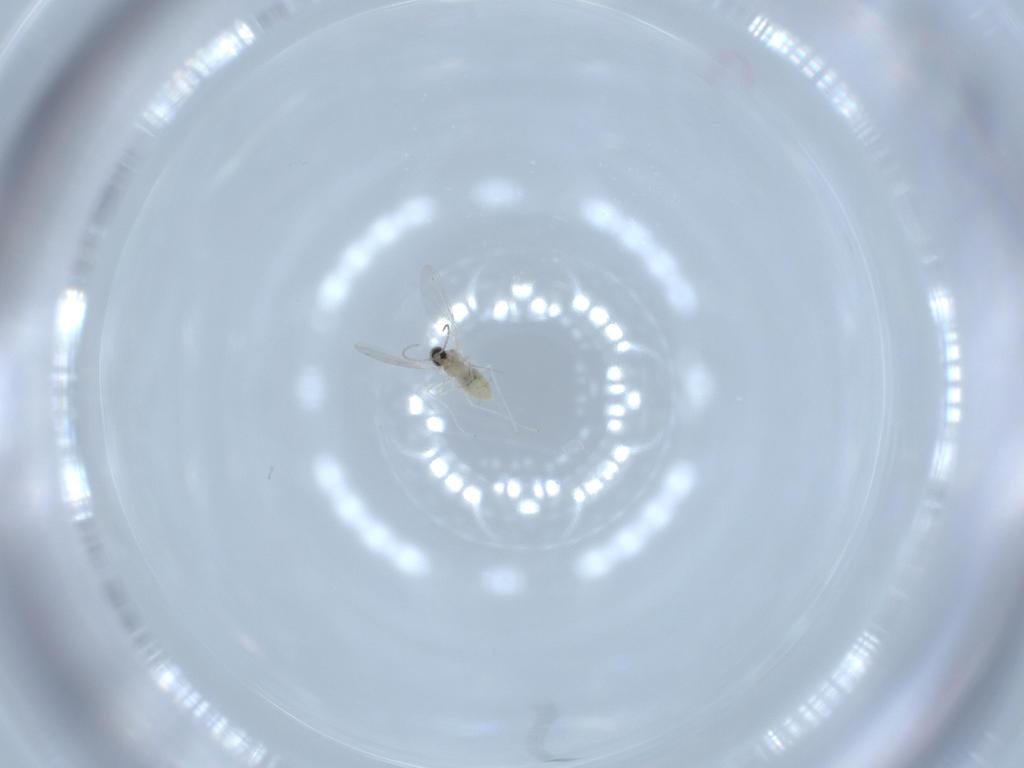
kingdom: Animalia
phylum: Arthropoda
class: Insecta
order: Diptera
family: Cecidomyiidae
